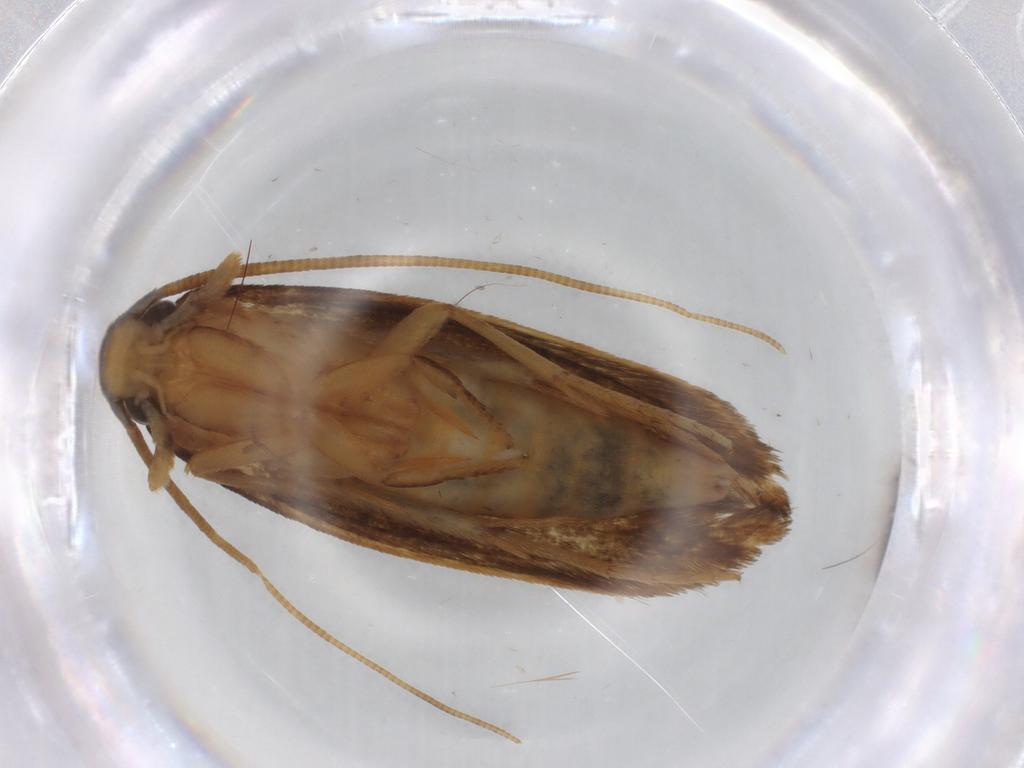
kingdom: Animalia
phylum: Arthropoda
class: Insecta
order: Lepidoptera
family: Tineidae
